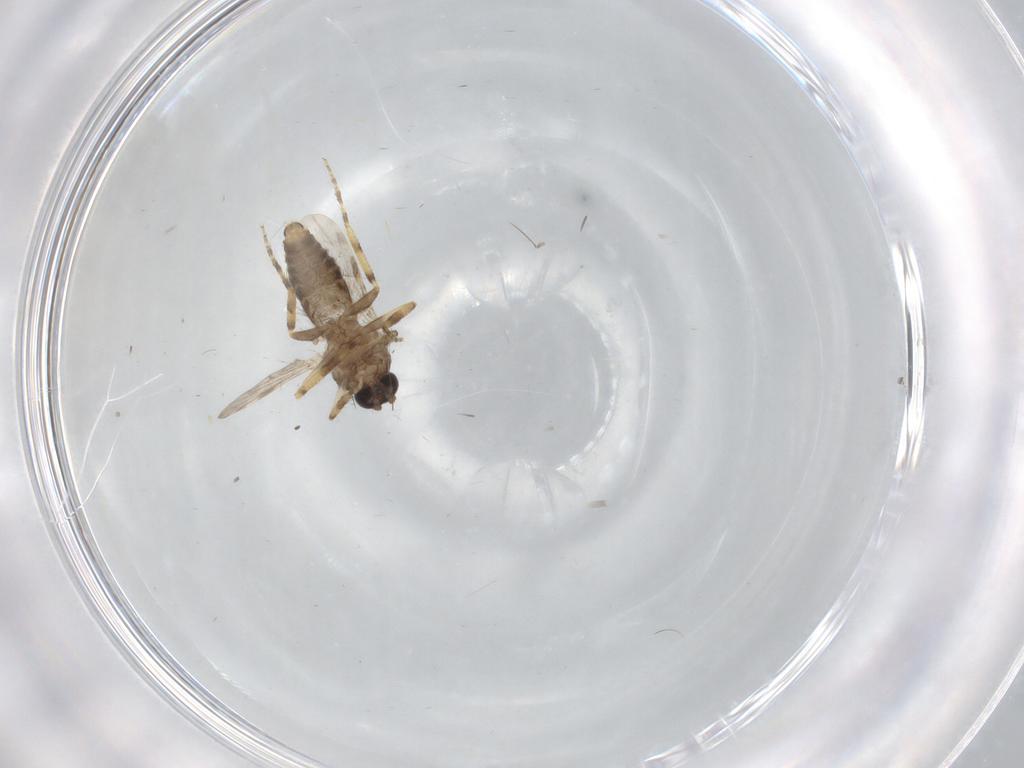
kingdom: Animalia
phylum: Arthropoda
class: Insecta
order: Diptera
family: Ceratopogonidae
